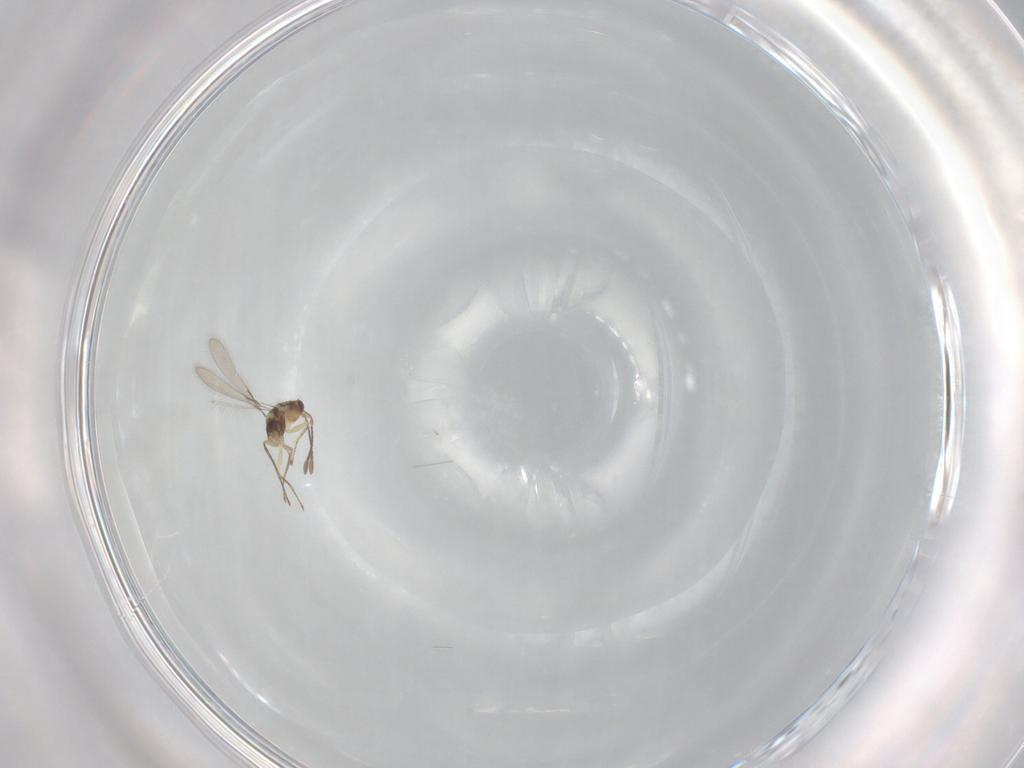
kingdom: Animalia
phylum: Arthropoda
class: Insecta
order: Hymenoptera
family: Mymaridae
